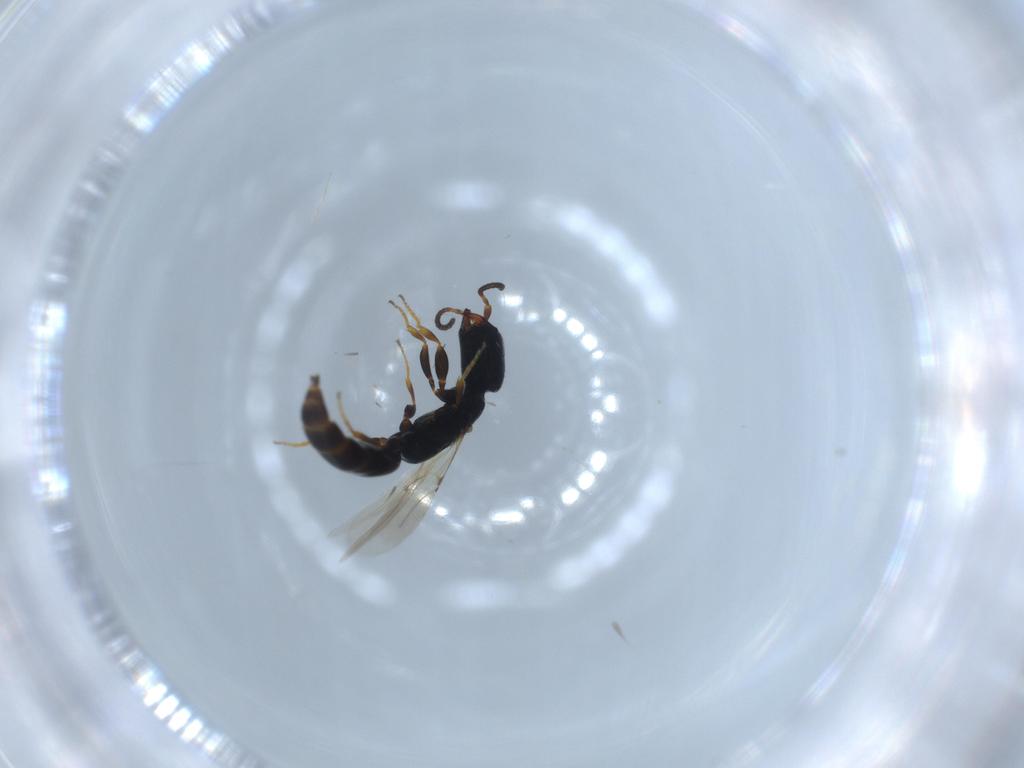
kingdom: Animalia
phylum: Arthropoda
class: Insecta
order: Hymenoptera
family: Bethylidae
